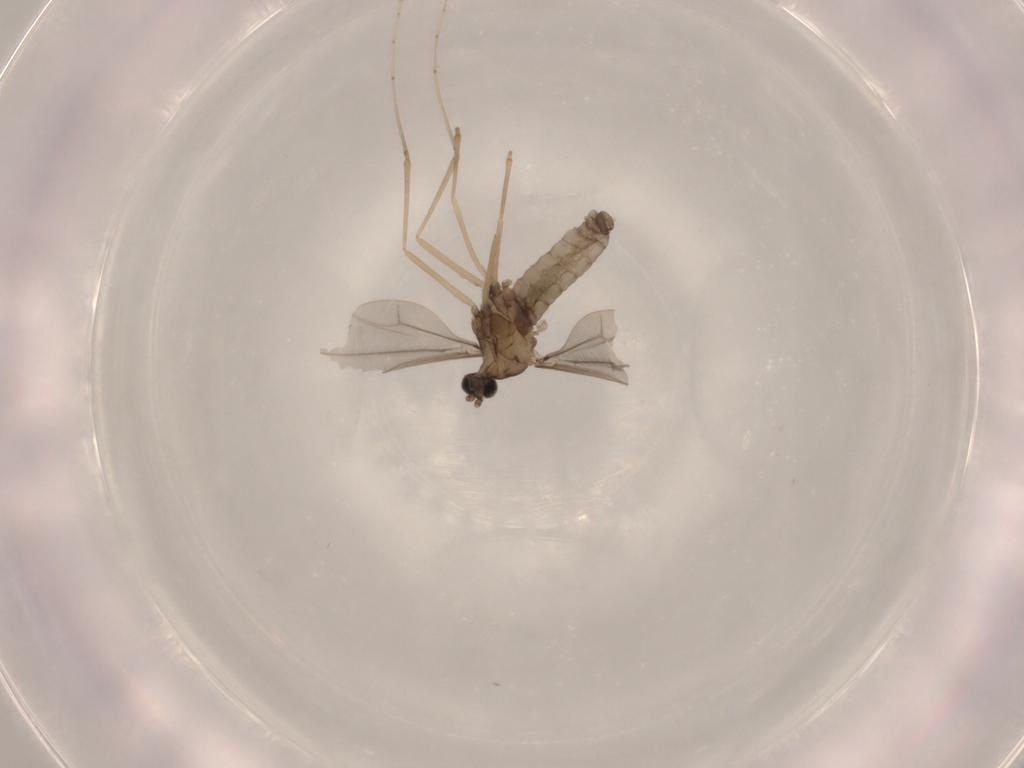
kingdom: Animalia
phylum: Arthropoda
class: Insecta
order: Diptera
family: Cecidomyiidae
